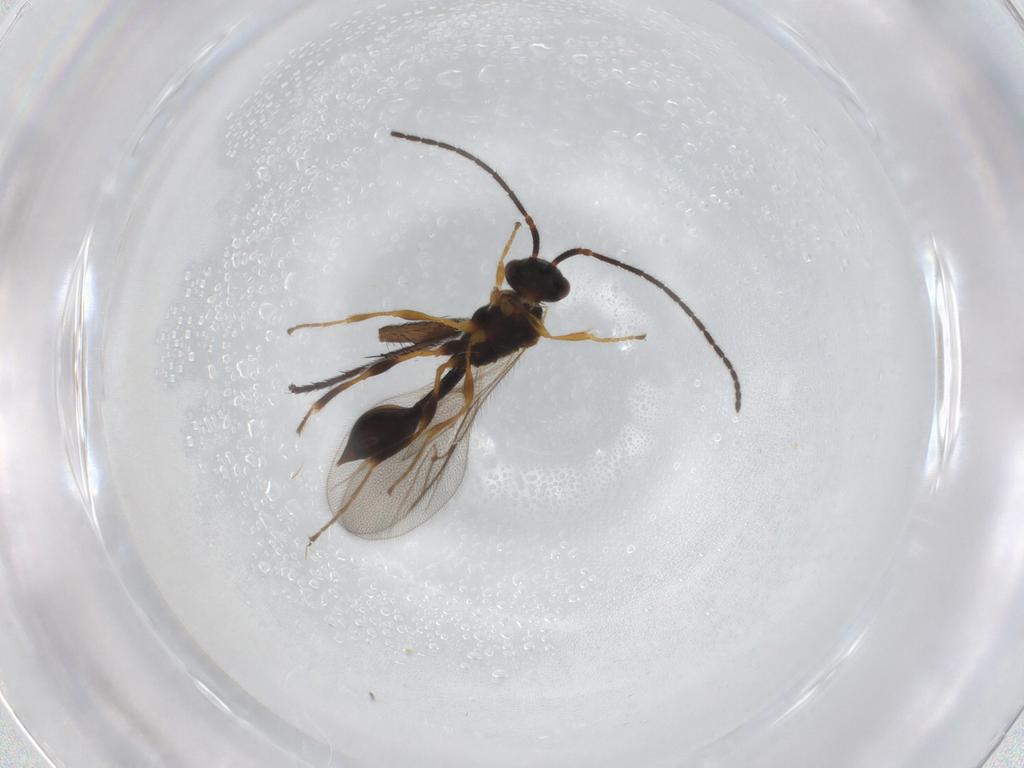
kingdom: Animalia
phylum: Arthropoda
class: Insecta
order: Hymenoptera
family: Diapriidae
